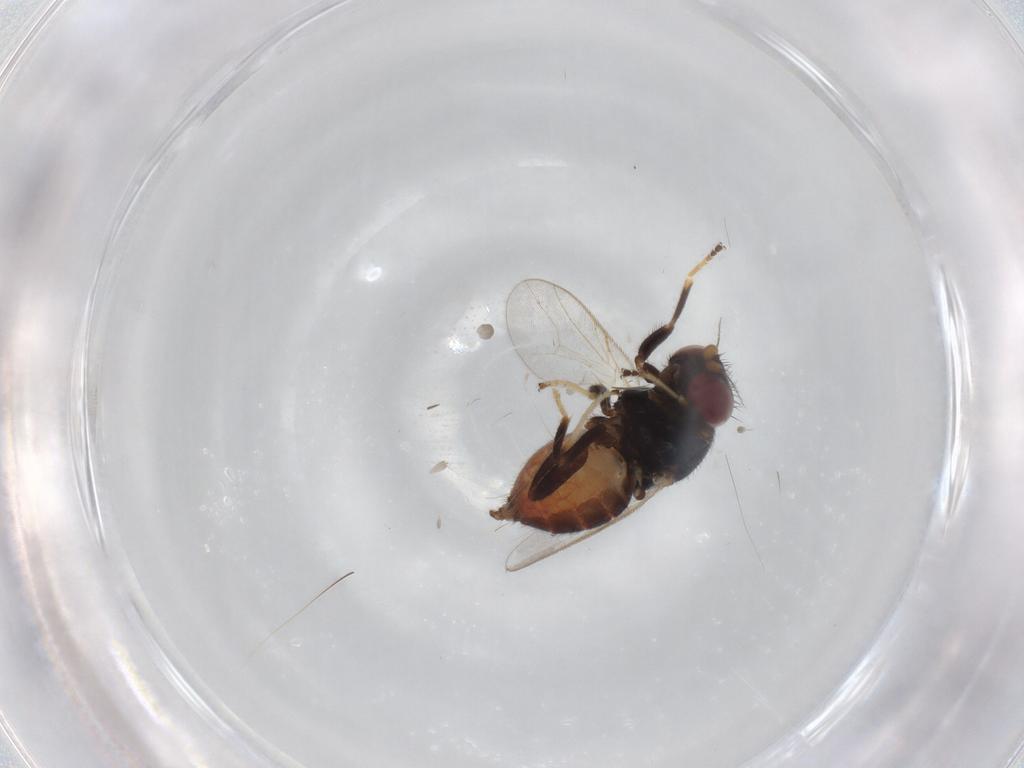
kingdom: Animalia
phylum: Arthropoda
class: Insecta
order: Diptera
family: Chloropidae
